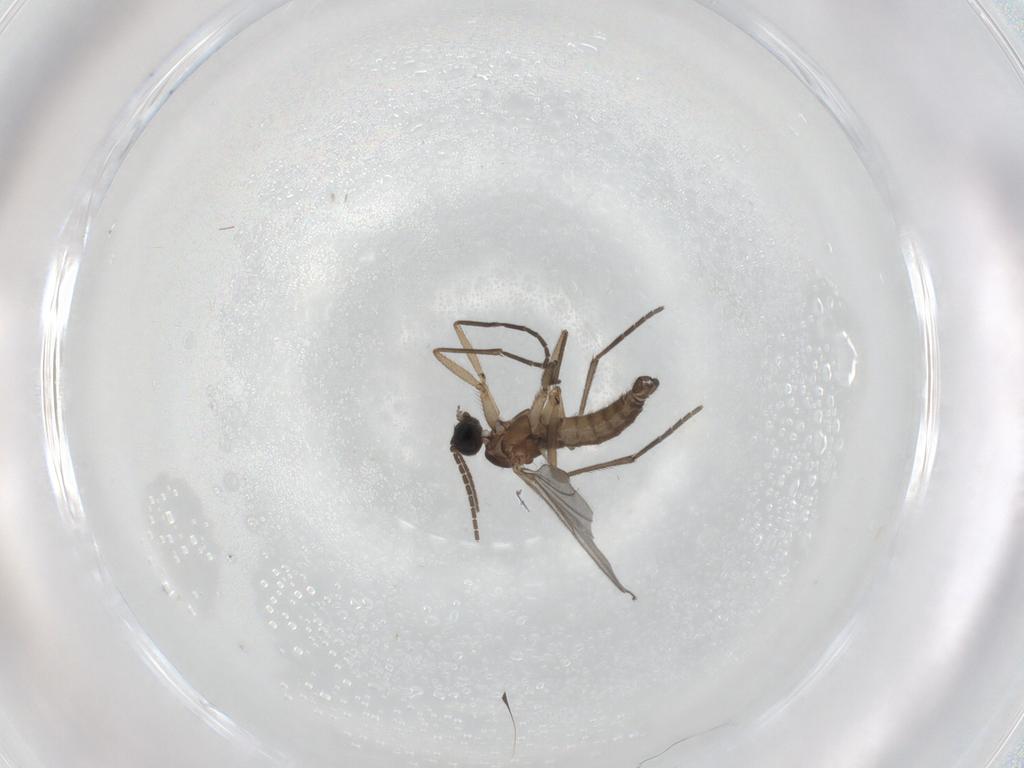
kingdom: Animalia
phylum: Arthropoda
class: Insecta
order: Diptera
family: Sciaridae
